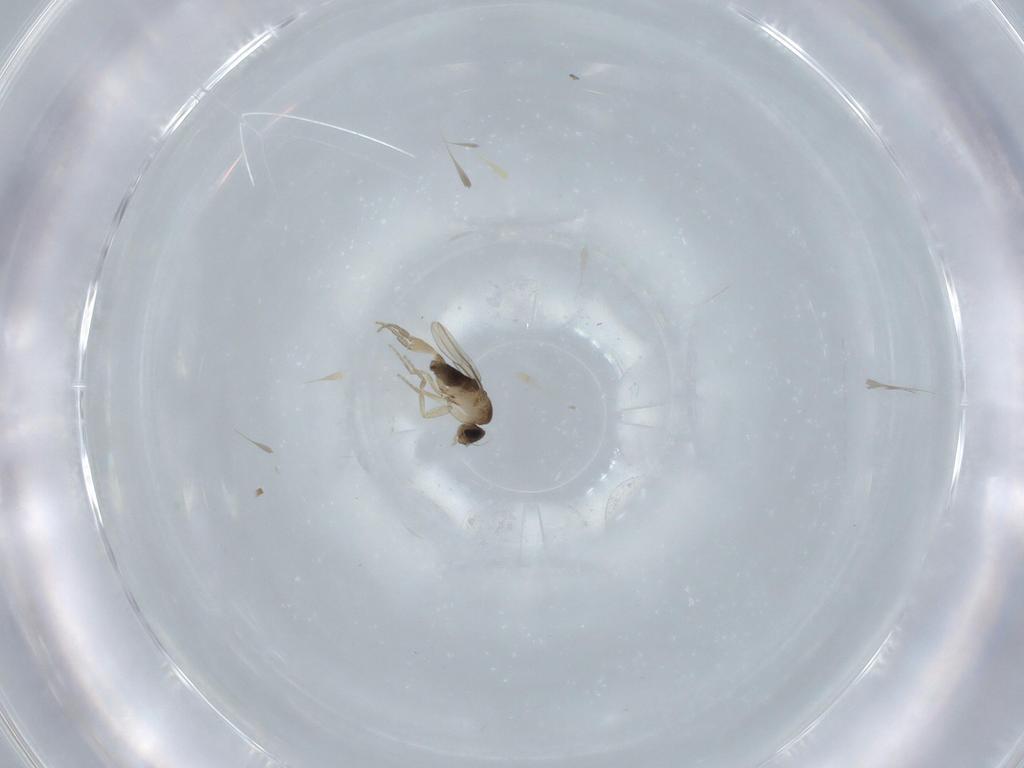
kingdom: Animalia
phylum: Arthropoda
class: Insecta
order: Diptera
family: Phoridae
